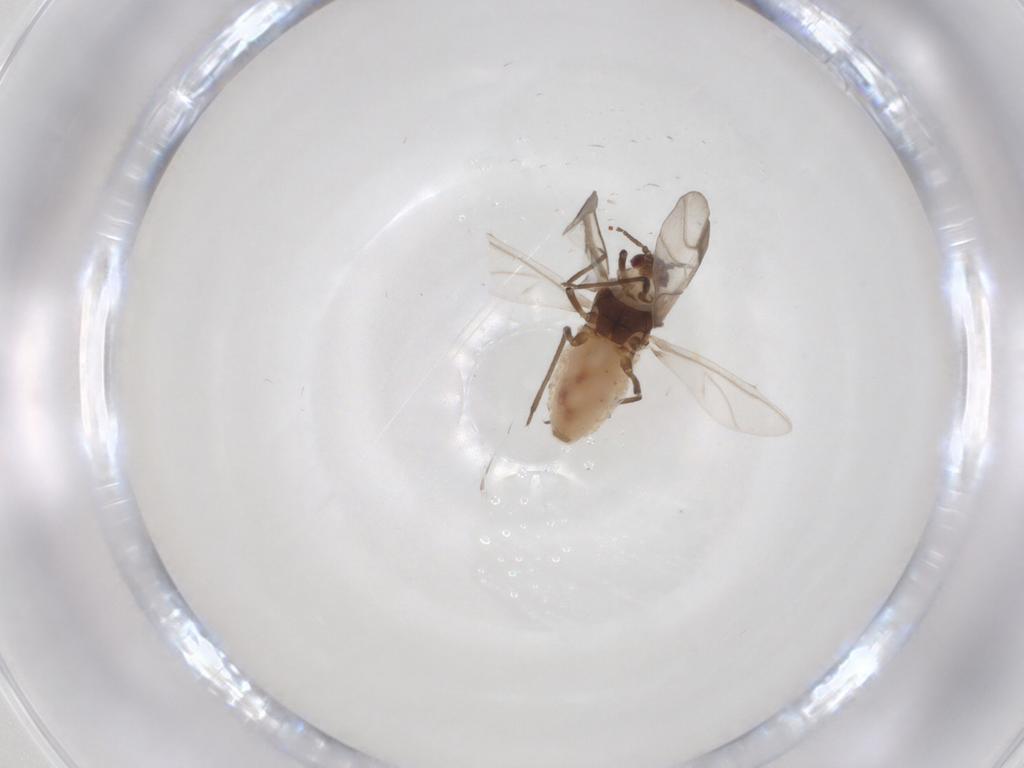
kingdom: Animalia
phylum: Arthropoda
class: Insecta
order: Hemiptera
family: Aphididae
